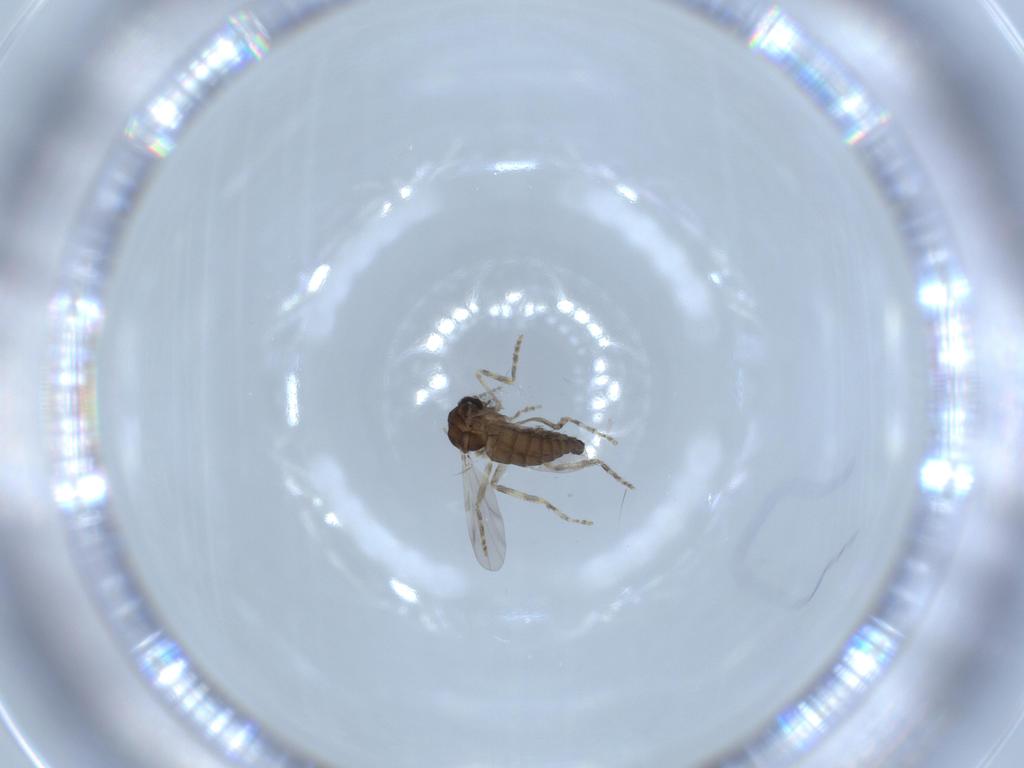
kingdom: Animalia
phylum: Arthropoda
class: Insecta
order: Diptera
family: Ceratopogonidae
